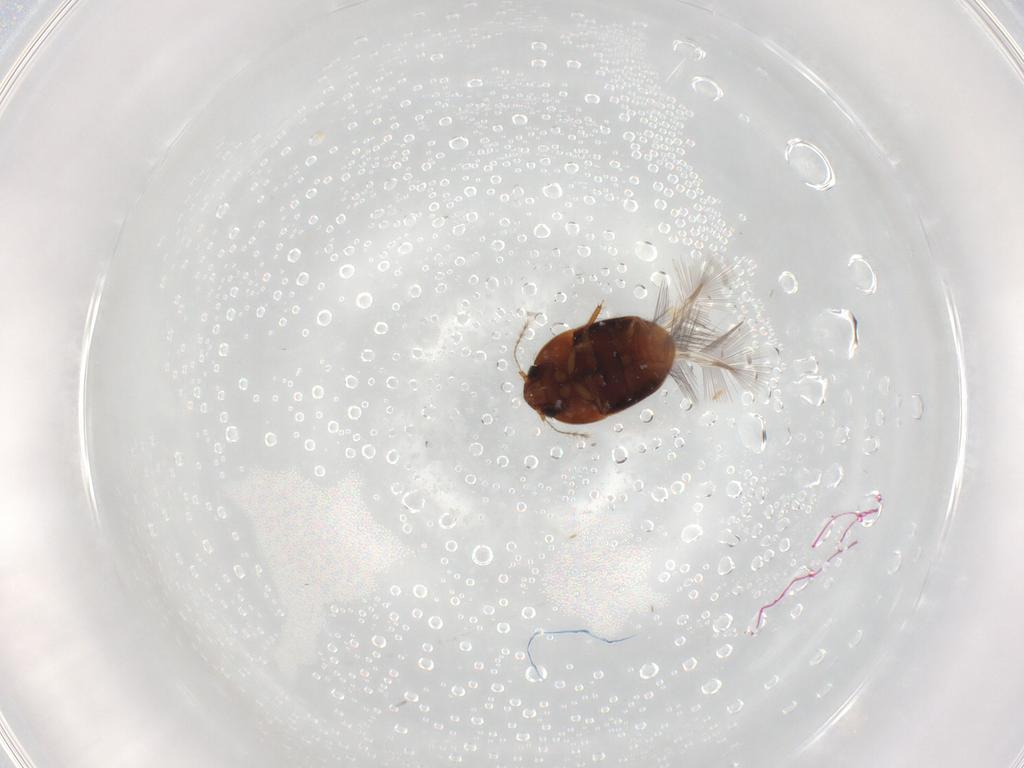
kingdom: Animalia
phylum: Arthropoda
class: Insecta
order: Coleoptera
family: Ptiliidae
